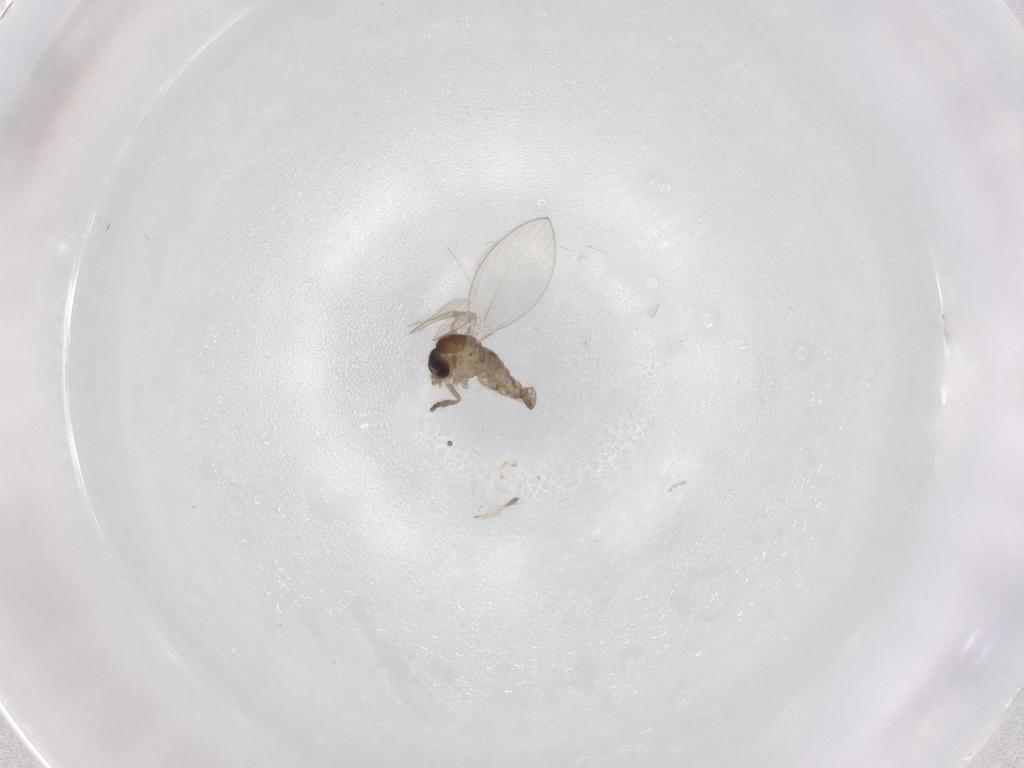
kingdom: Animalia
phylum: Arthropoda
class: Insecta
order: Diptera
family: Psychodidae
